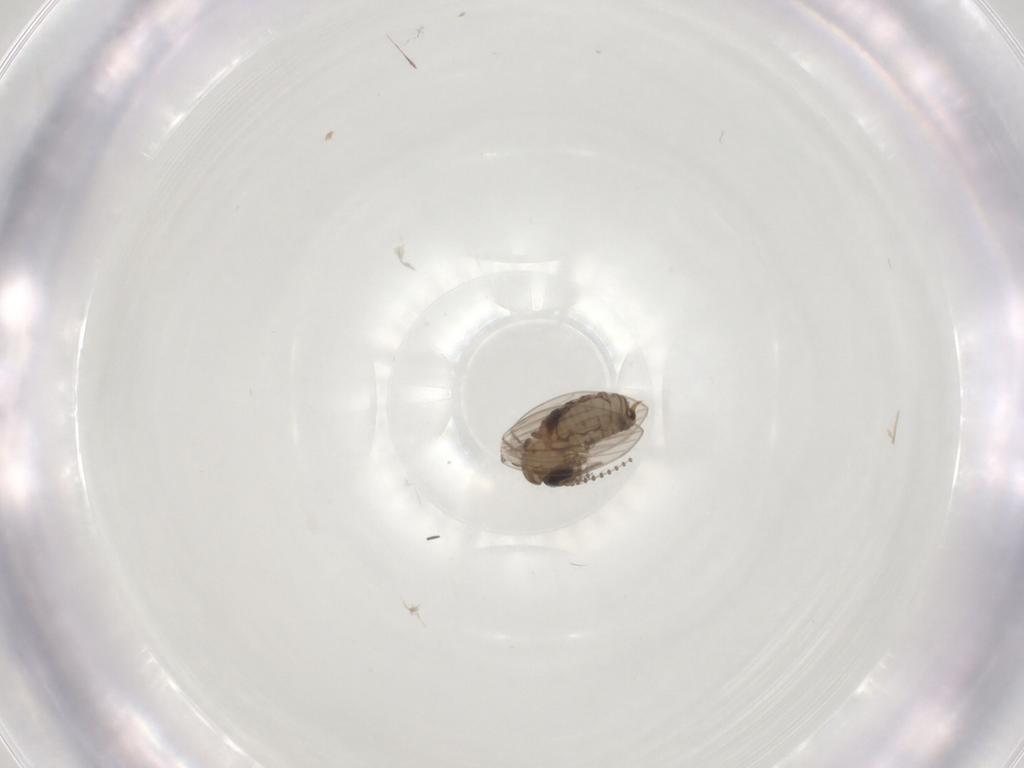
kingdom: Animalia
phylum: Arthropoda
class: Insecta
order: Diptera
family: Psychodidae
